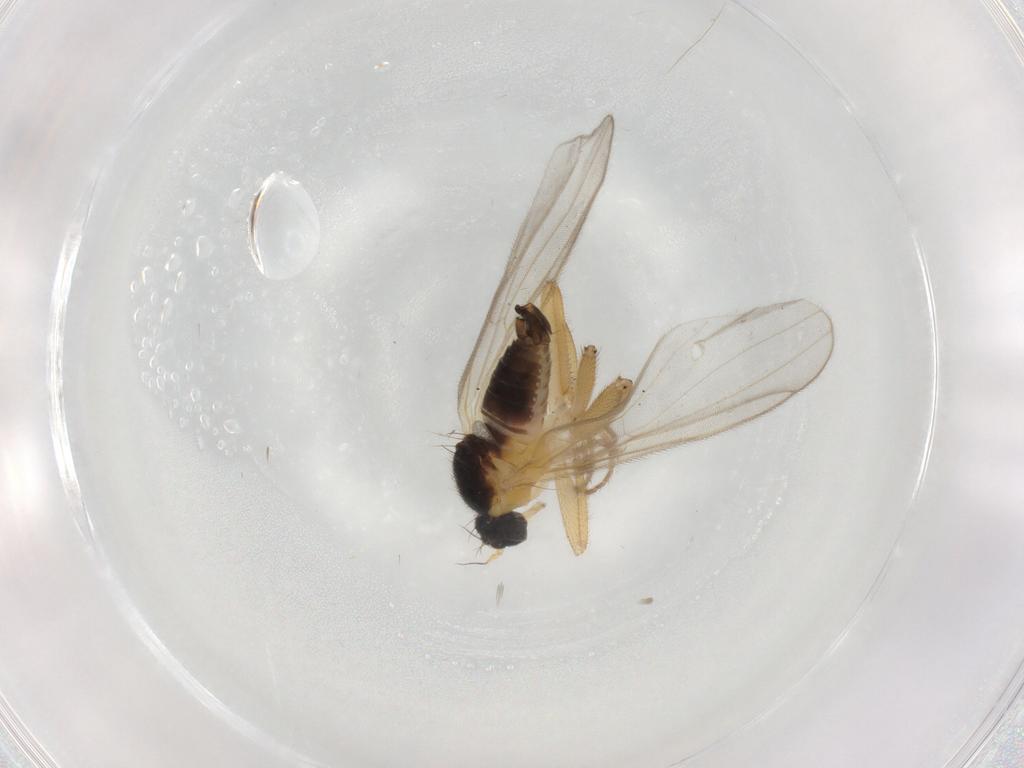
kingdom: Animalia
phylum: Arthropoda
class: Insecta
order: Diptera
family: Hybotidae
